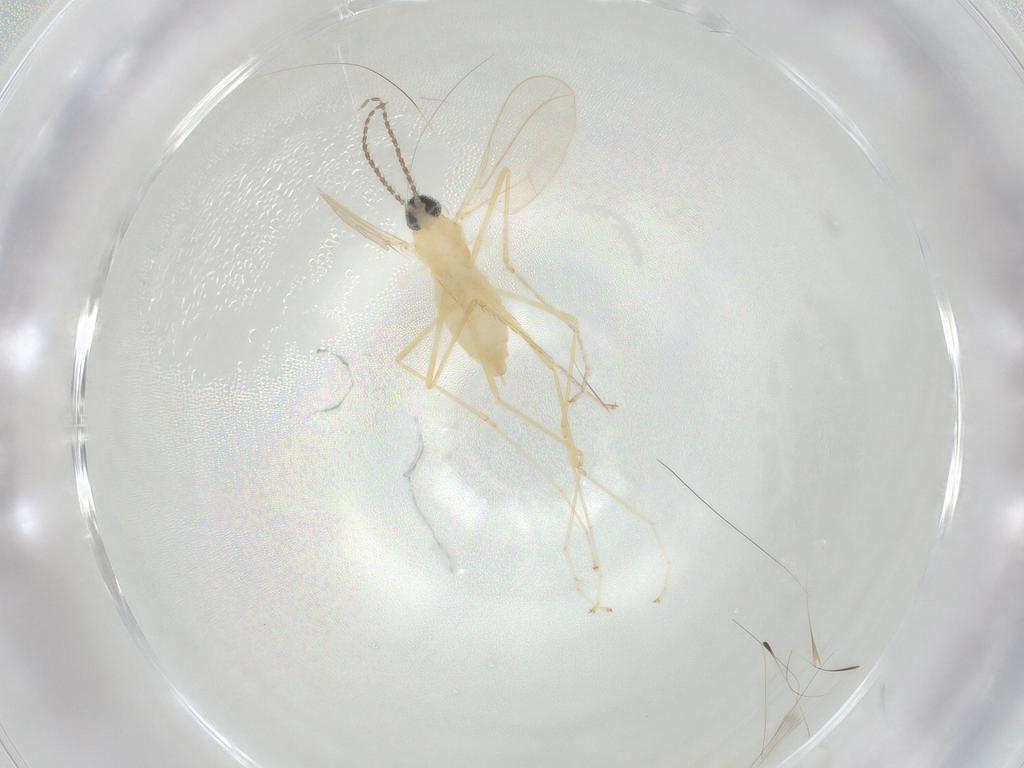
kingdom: Animalia
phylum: Arthropoda
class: Insecta
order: Diptera
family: Cecidomyiidae
